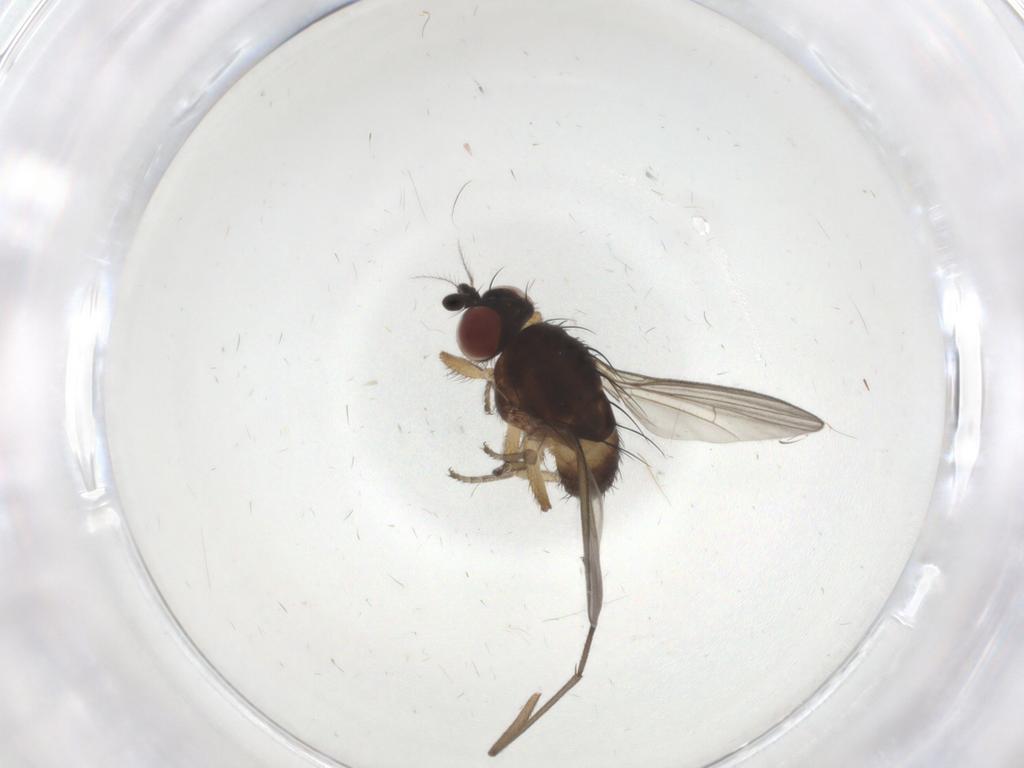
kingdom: Animalia
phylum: Arthropoda
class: Insecta
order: Diptera
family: Sciaridae
